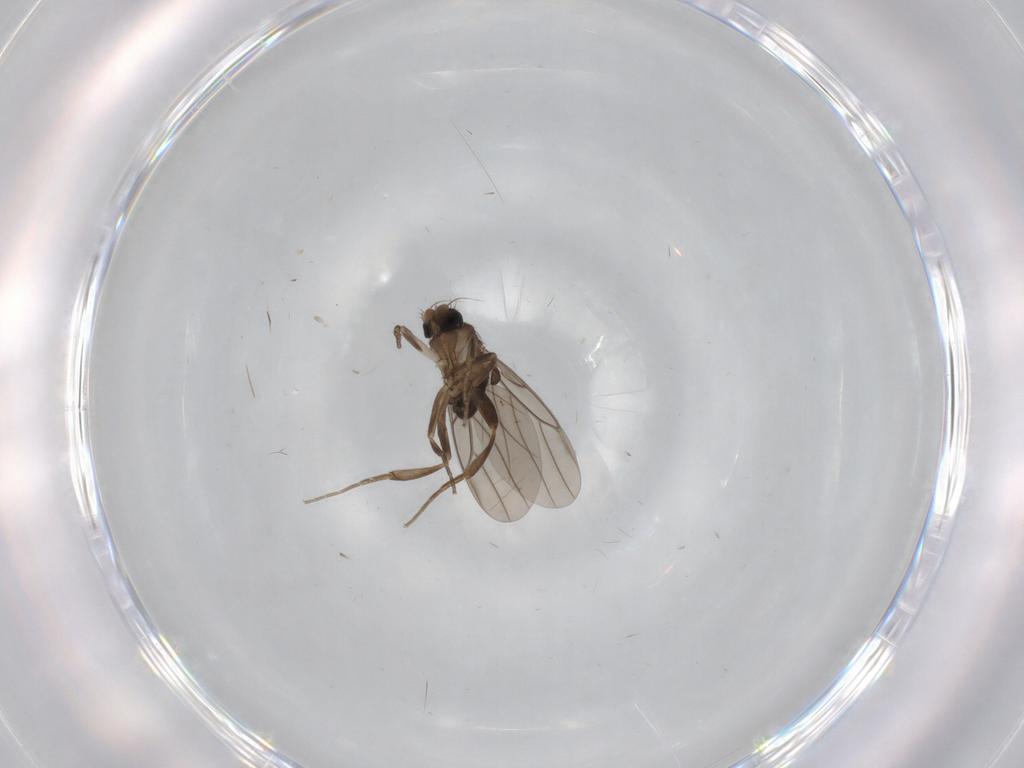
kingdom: Animalia
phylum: Arthropoda
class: Insecta
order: Diptera
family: Chironomidae
